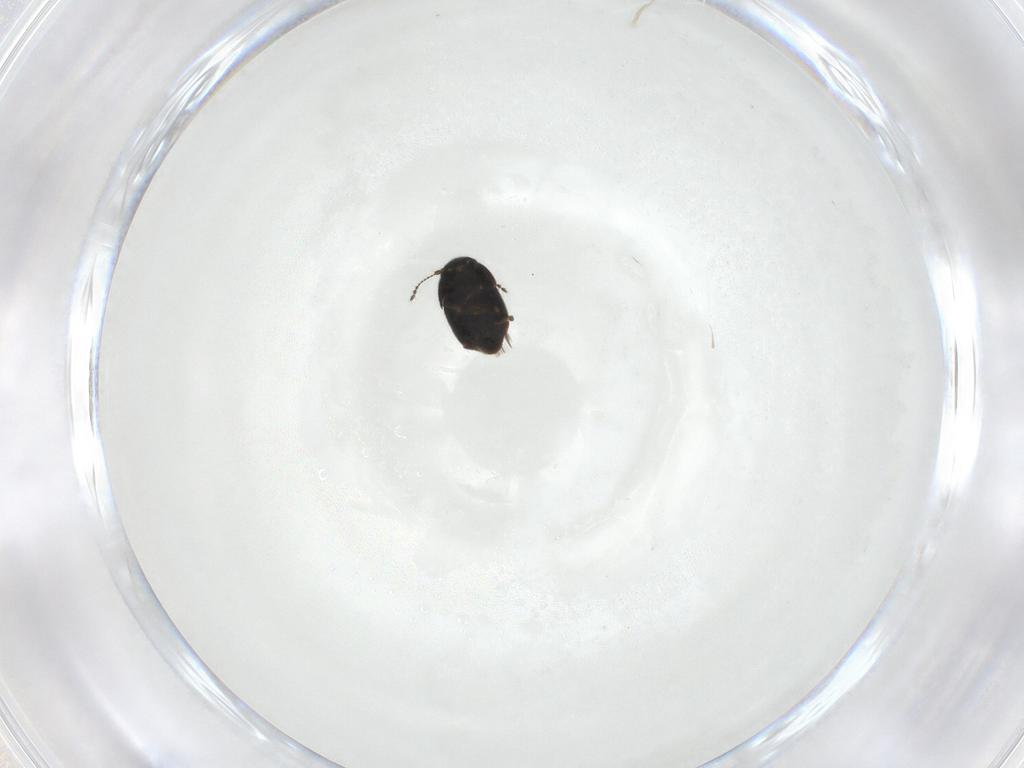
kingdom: Animalia
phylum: Arthropoda
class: Insecta
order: Coleoptera
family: Ptiliidae
